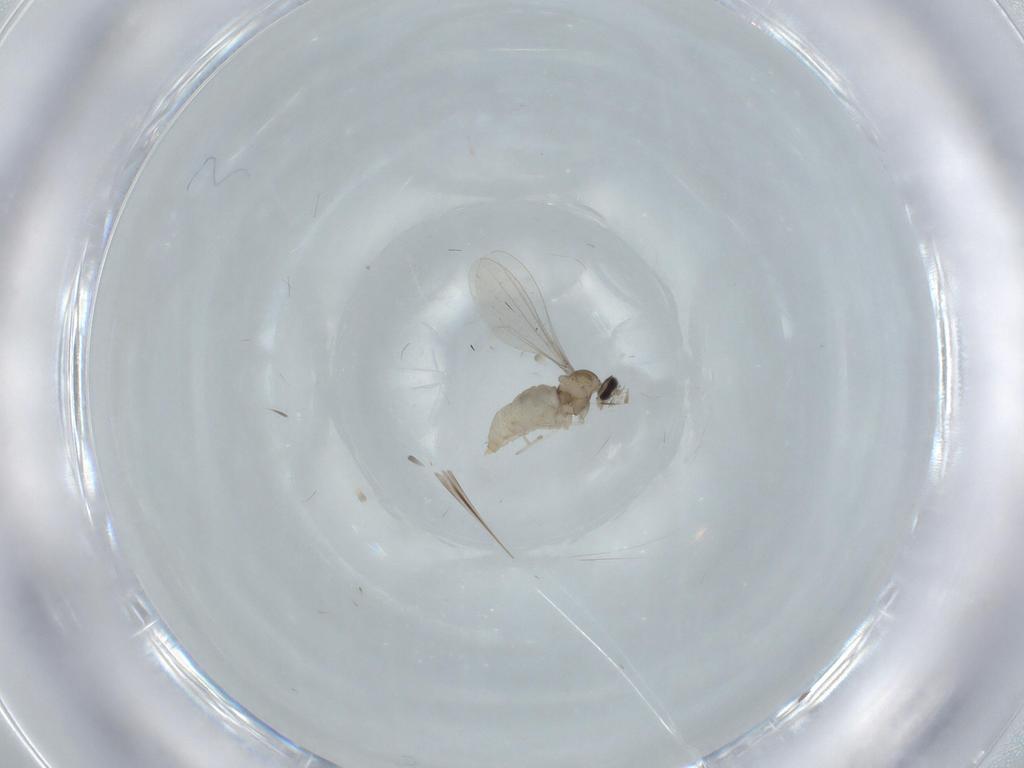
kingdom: Animalia
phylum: Arthropoda
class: Insecta
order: Diptera
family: Cecidomyiidae
